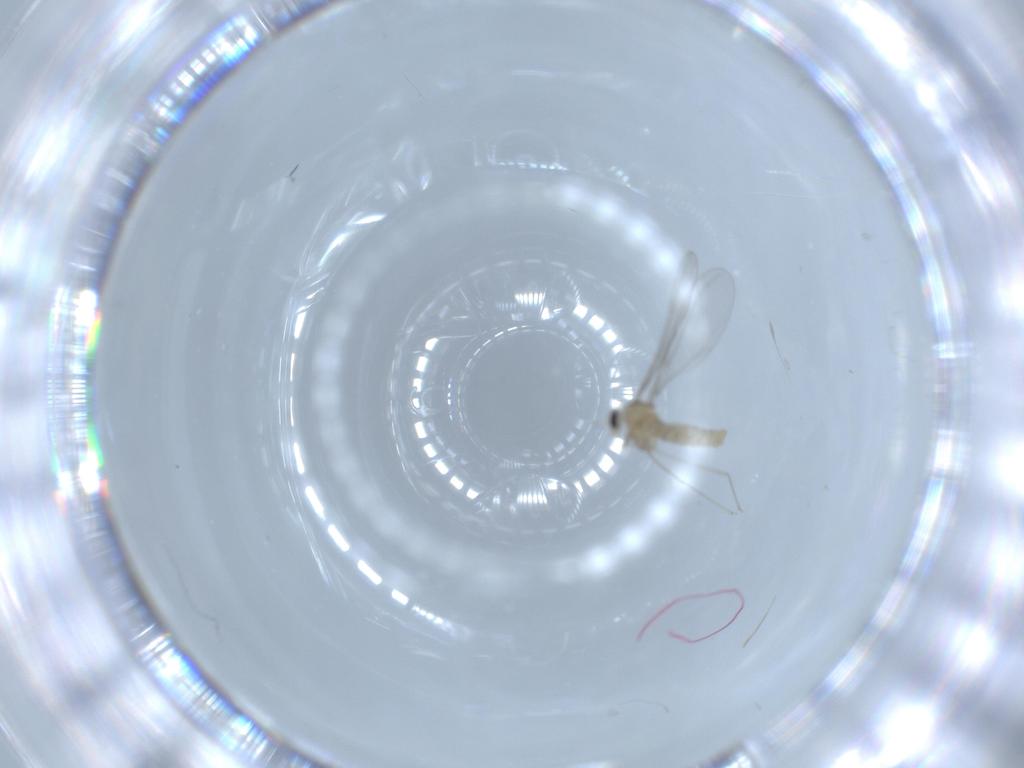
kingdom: Animalia
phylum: Arthropoda
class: Insecta
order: Diptera
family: Cecidomyiidae
